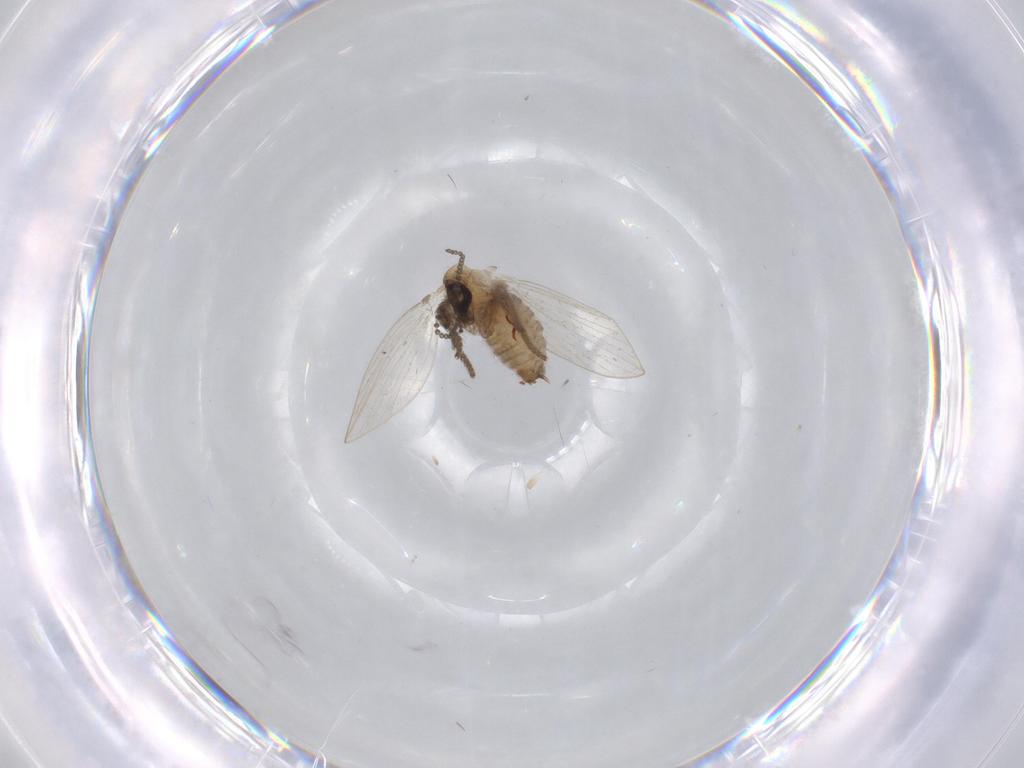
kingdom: Animalia
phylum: Arthropoda
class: Insecta
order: Diptera
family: Psychodidae
